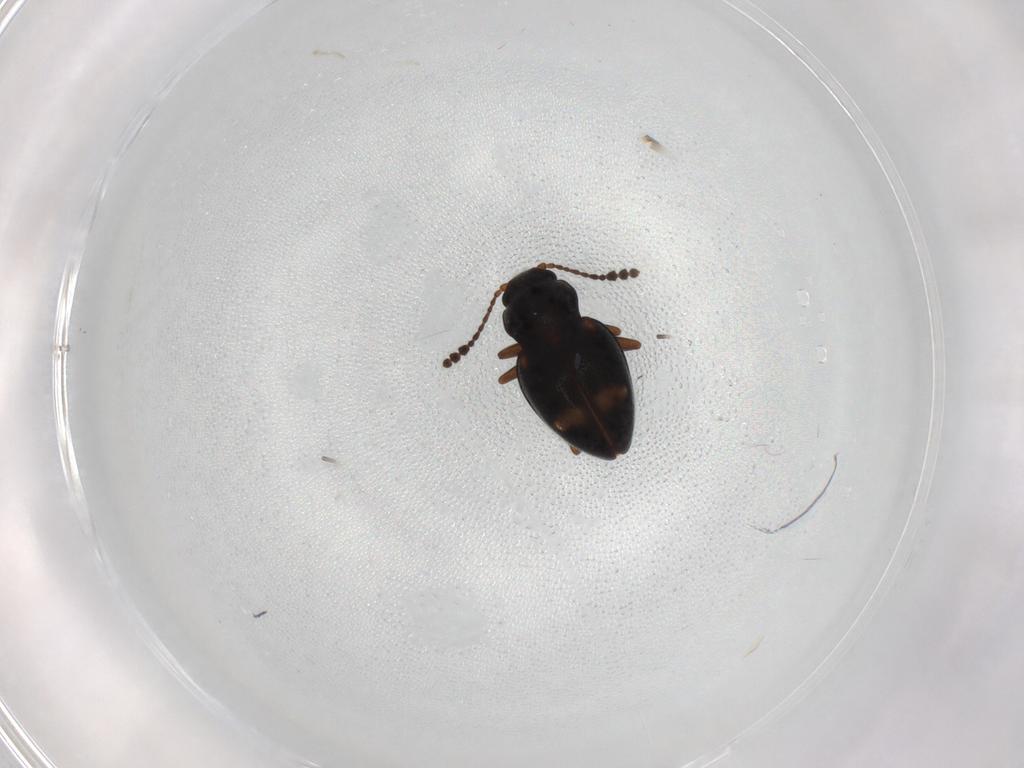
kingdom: Animalia
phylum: Arthropoda
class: Insecta
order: Coleoptera
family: Erotylidae
